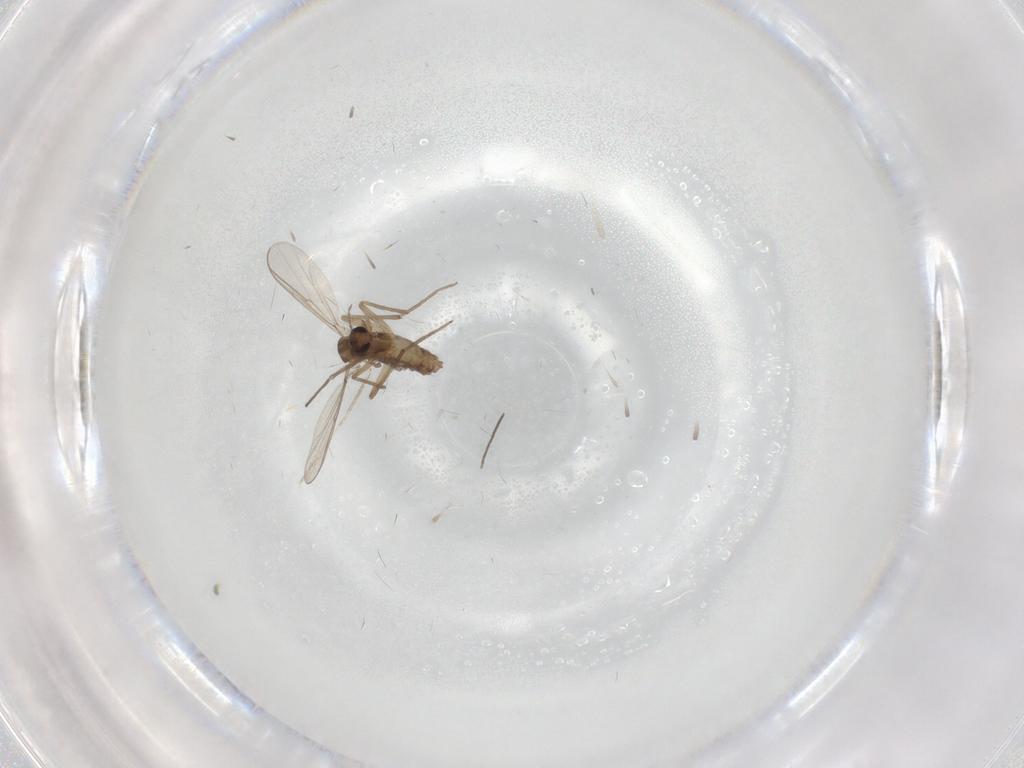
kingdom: Animalia
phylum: Arthropoda
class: Insecta
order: Diptera
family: Chironomidae
